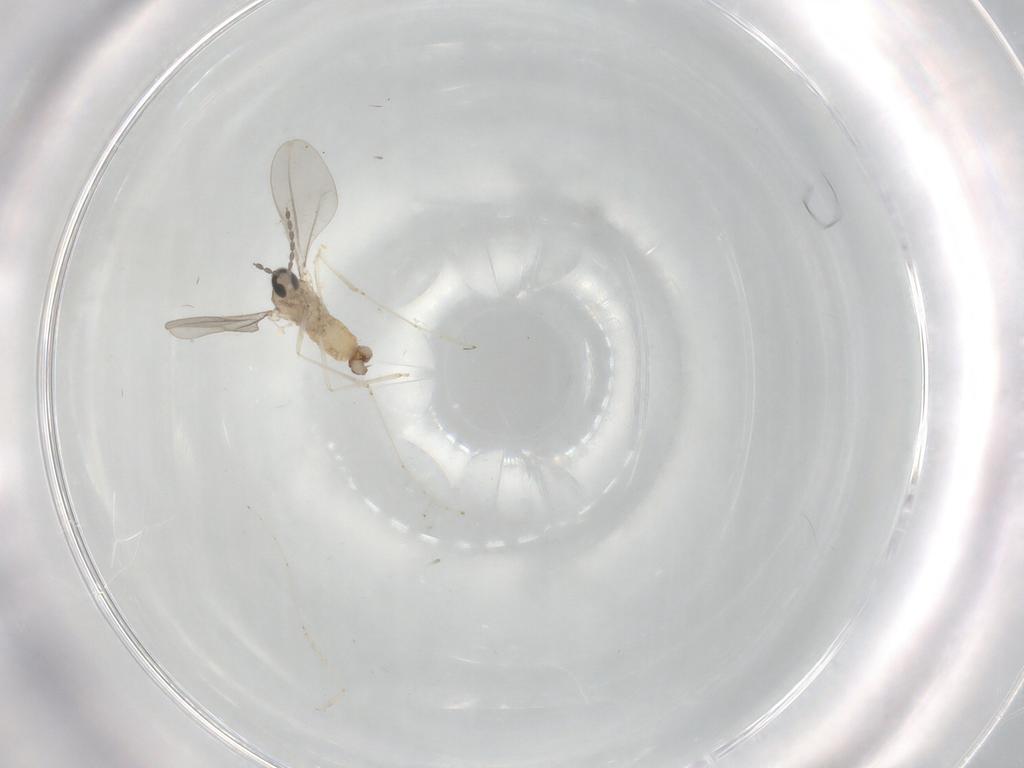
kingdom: Animalia
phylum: Arthropoda
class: Insecta
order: Diptera
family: Cecidomyiidae
